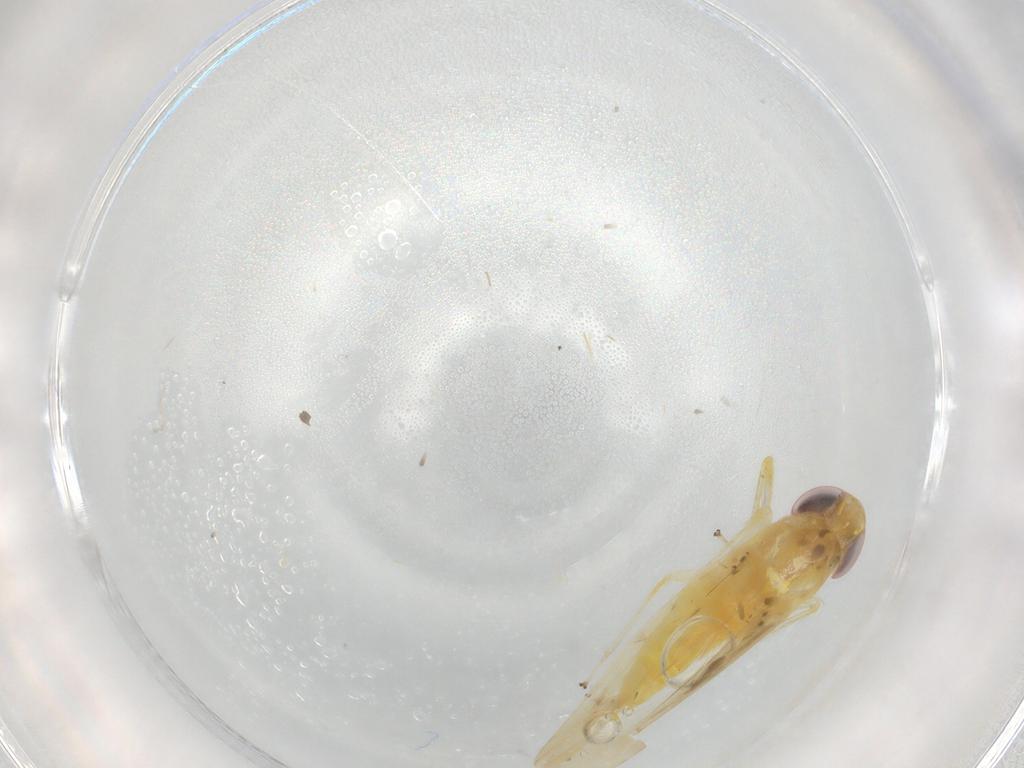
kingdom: Animalia
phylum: Arthropoda
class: Insecta
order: Hemiptera
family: Cicadellidae
